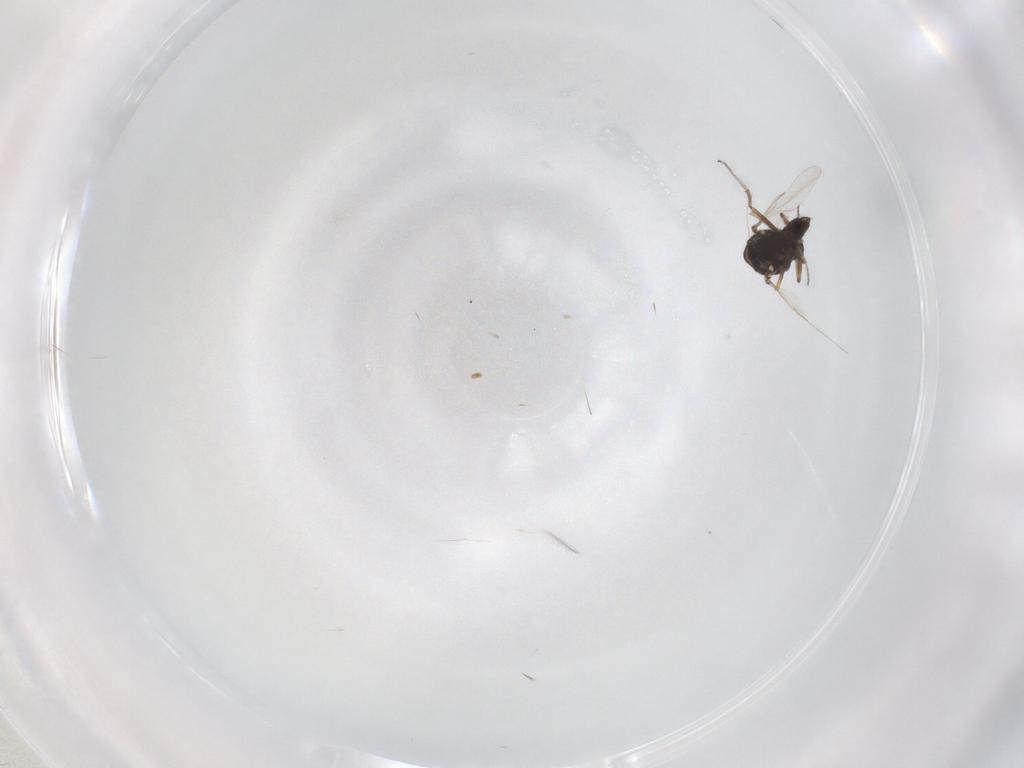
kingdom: Animalia
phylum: Arthropoda
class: Insecta
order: Diptera
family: Ceratopogonidae
